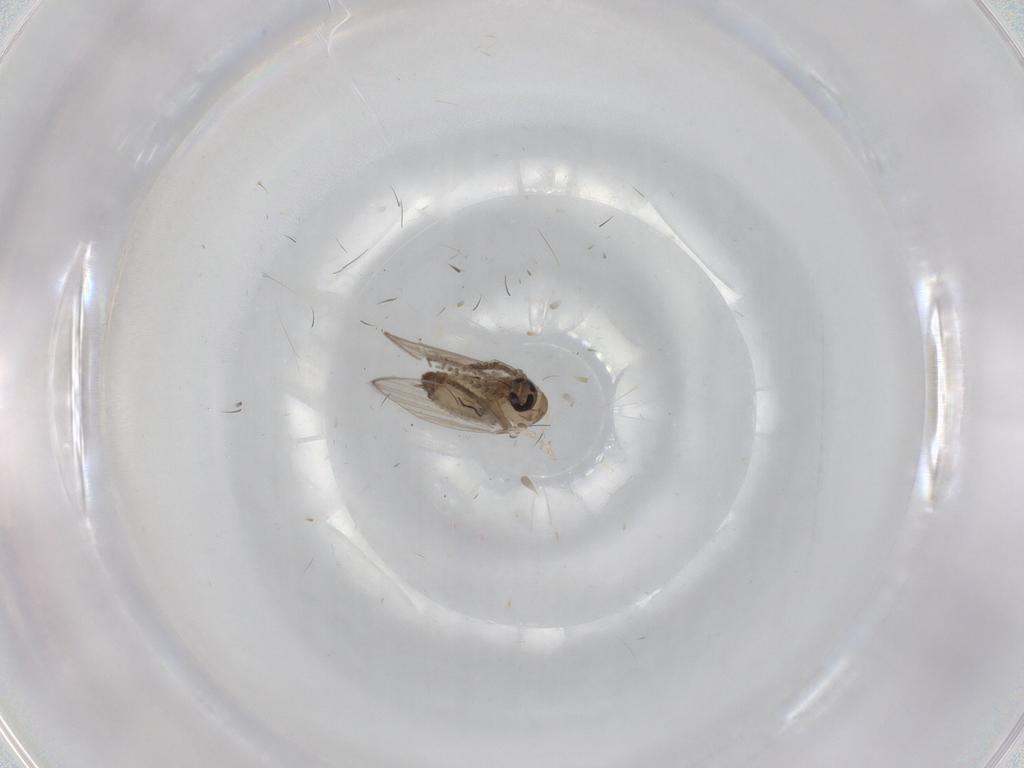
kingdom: Animalia
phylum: Arthropoda
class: Insecta
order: Diptera
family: Psychodidae
